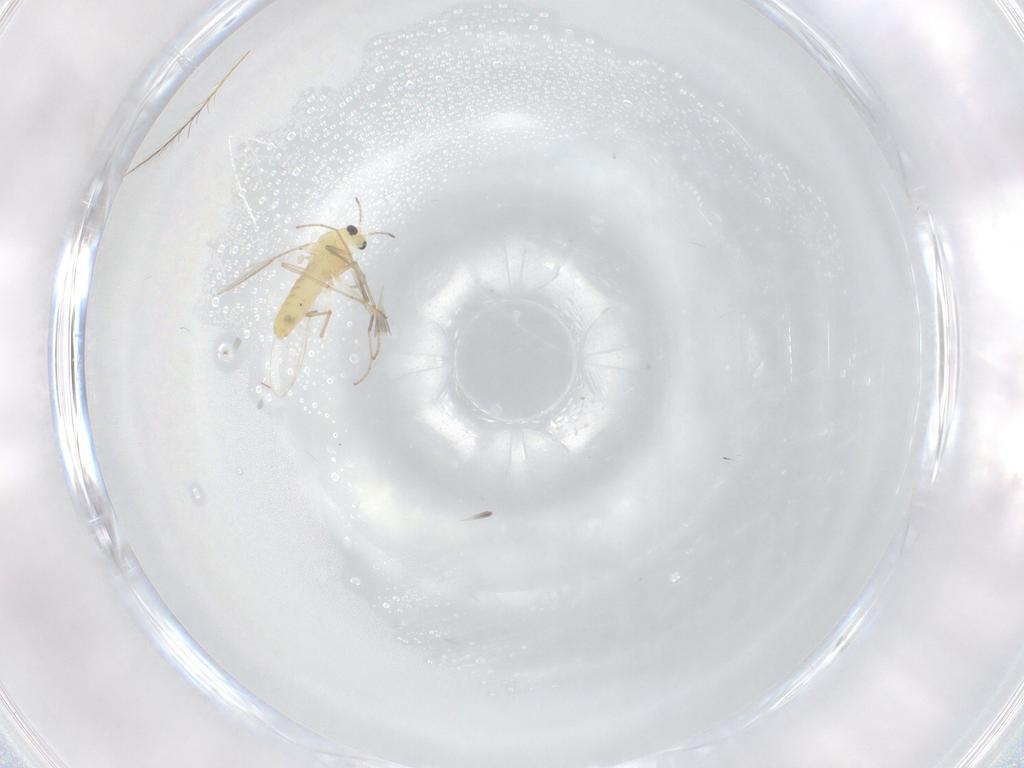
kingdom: Animalia
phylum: Arthropoda
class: Insecta
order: Diptera
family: Chironomidae
